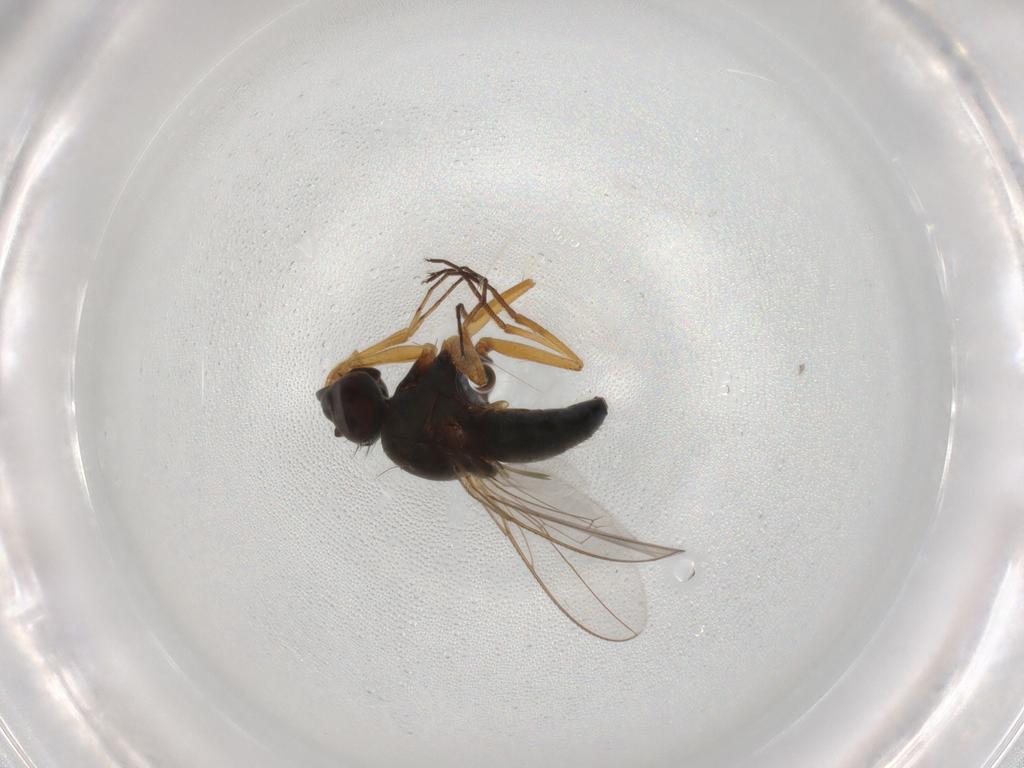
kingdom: Animalia
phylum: Arthropoda
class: Insecta
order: Diptera
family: Ephydridae
